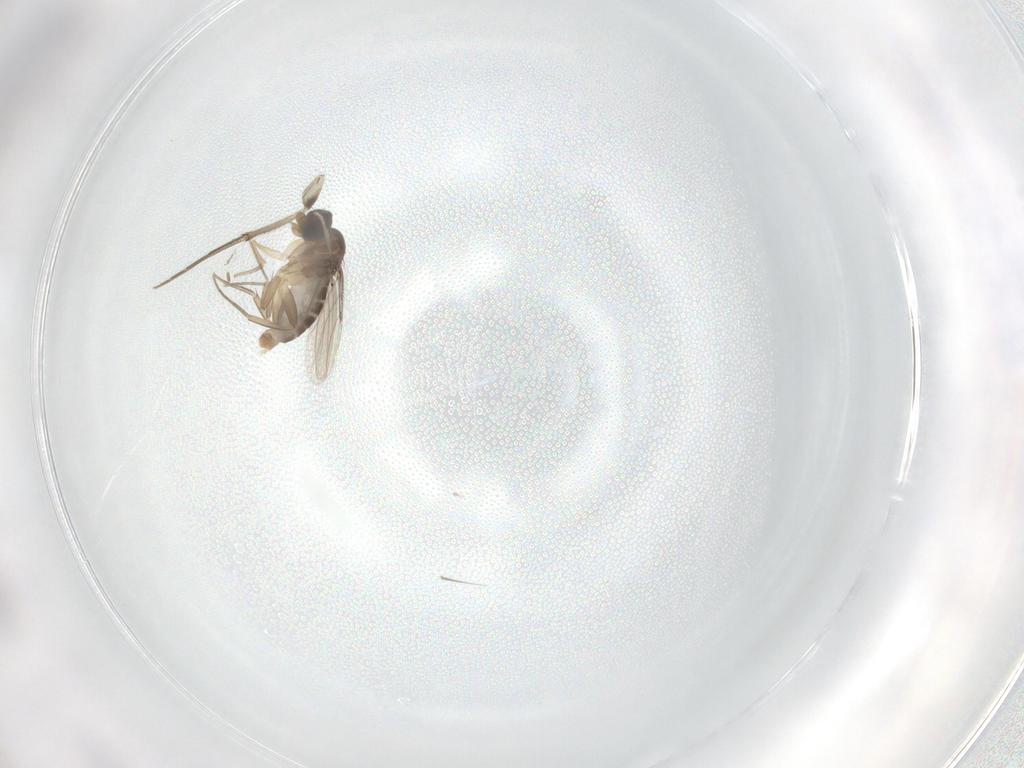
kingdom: Animalia
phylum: Arthropoda
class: Insecta
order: Diptera
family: Phoridae
